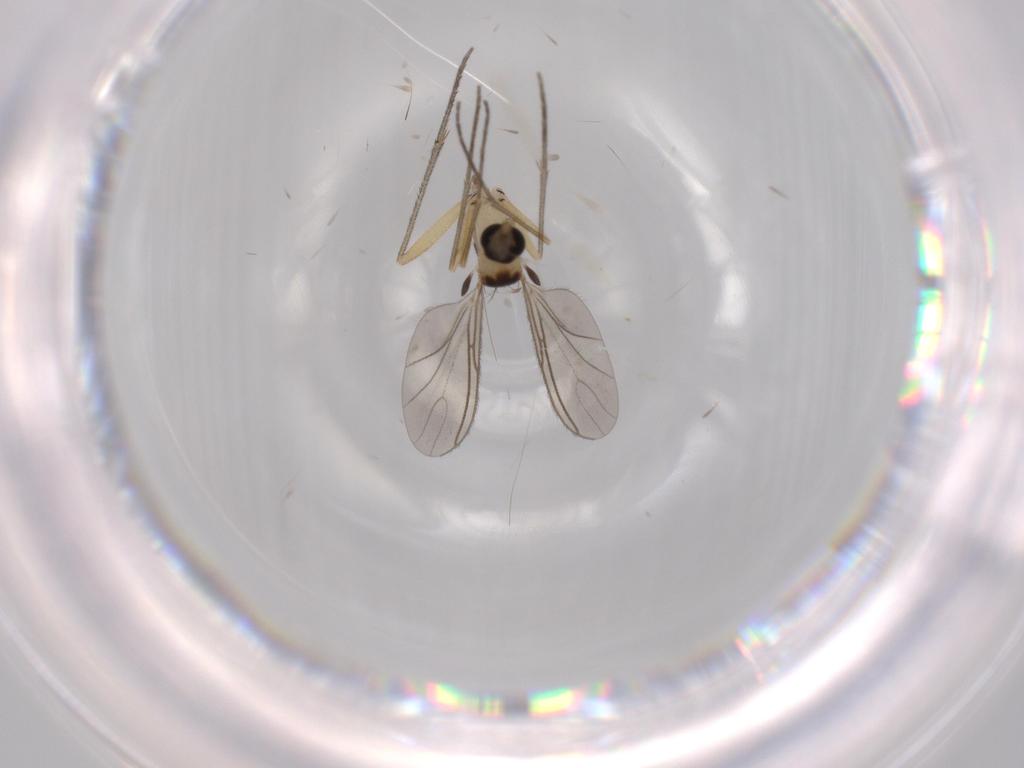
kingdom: Animalia
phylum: Arthropoda
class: Insecta
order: Diptera
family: Sciaridae
